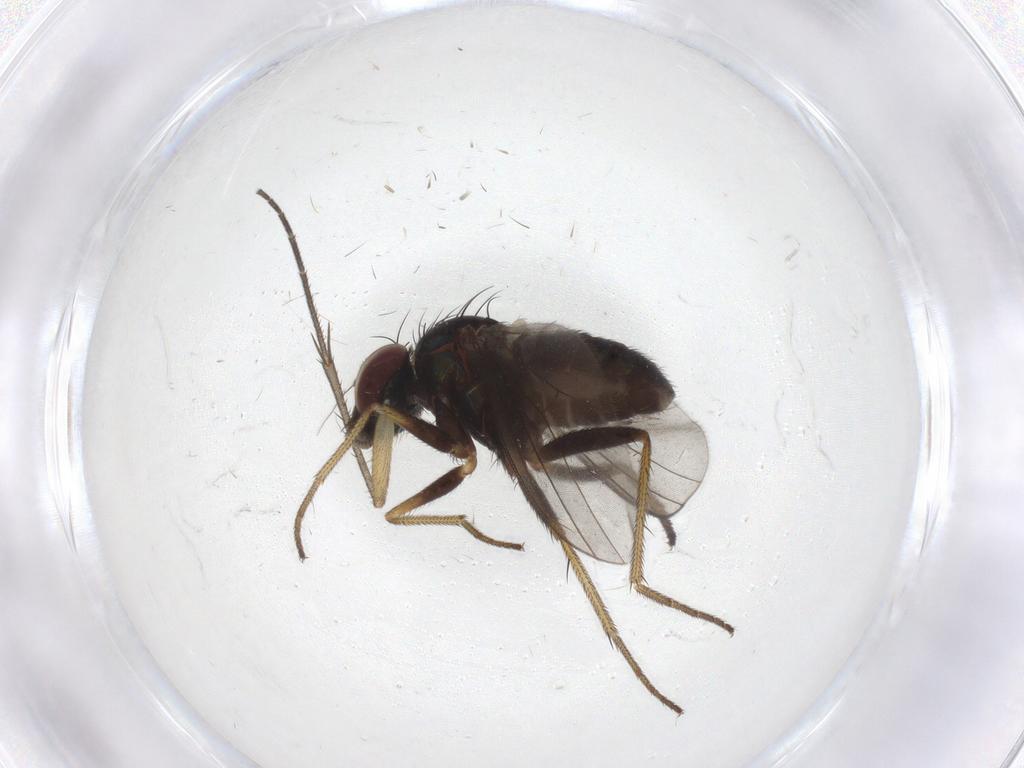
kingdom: Animalia
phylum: Arthropoda
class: Insecta
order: Diptera
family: Dolichopodidae
